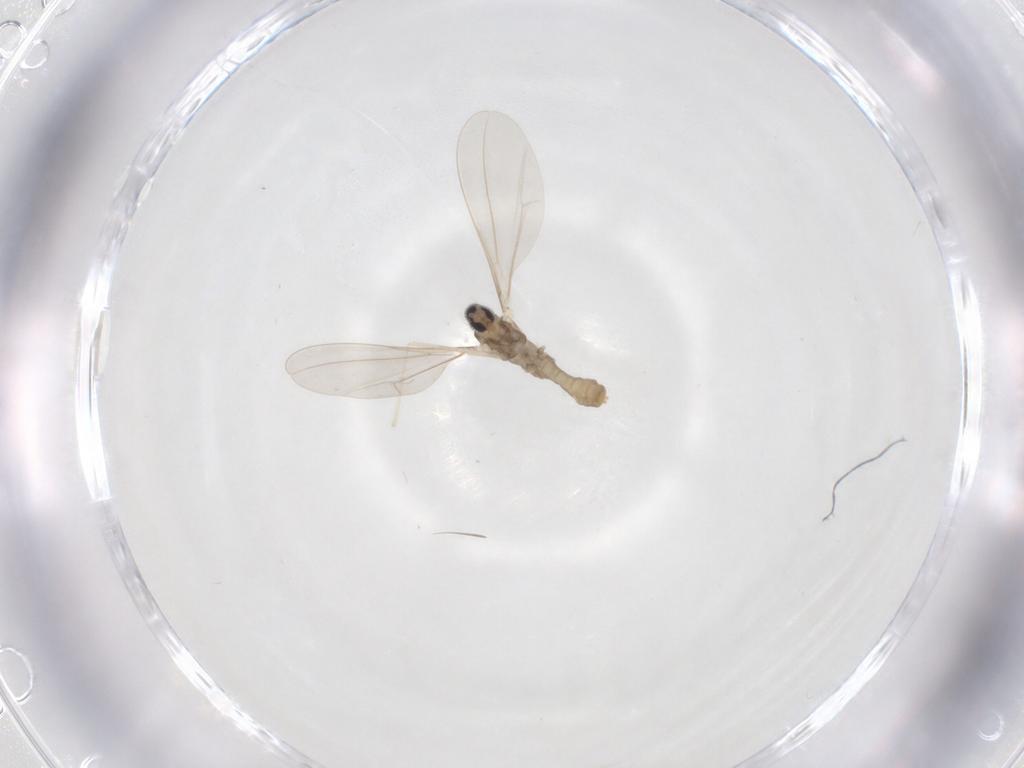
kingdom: Animalia
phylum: Arthropoda
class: Insecta
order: Diptera
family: Cecidomyiidae
